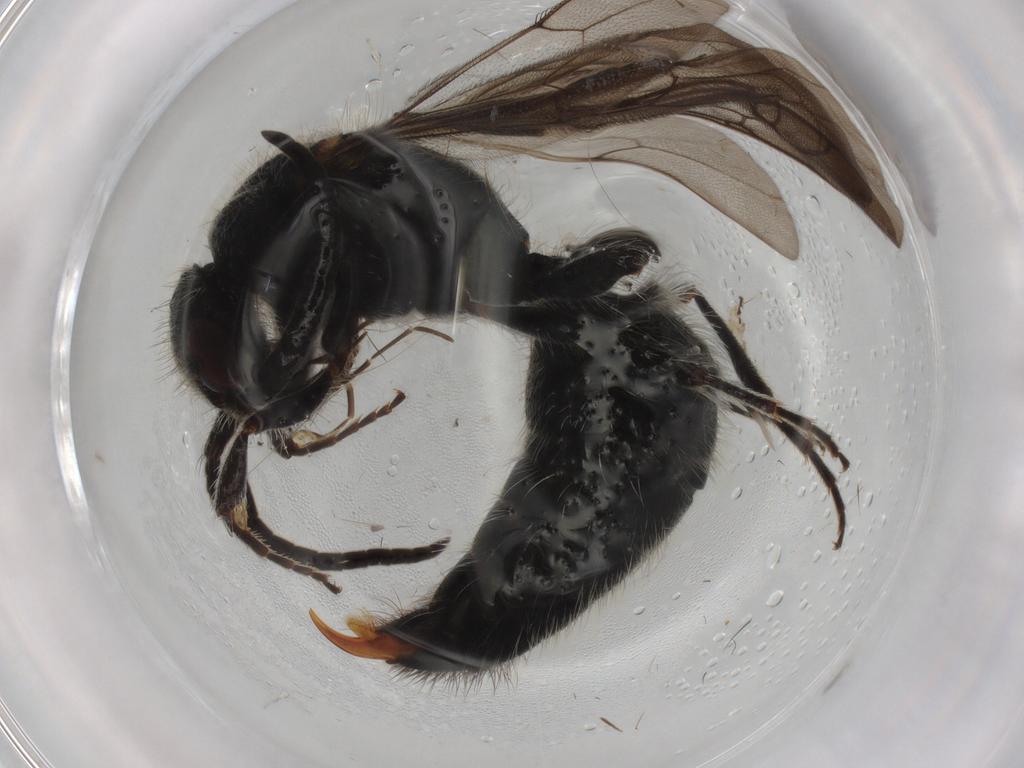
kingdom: Animalia
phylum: Arthropoda
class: Insecta
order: Hymenoptera
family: Mutillidae
